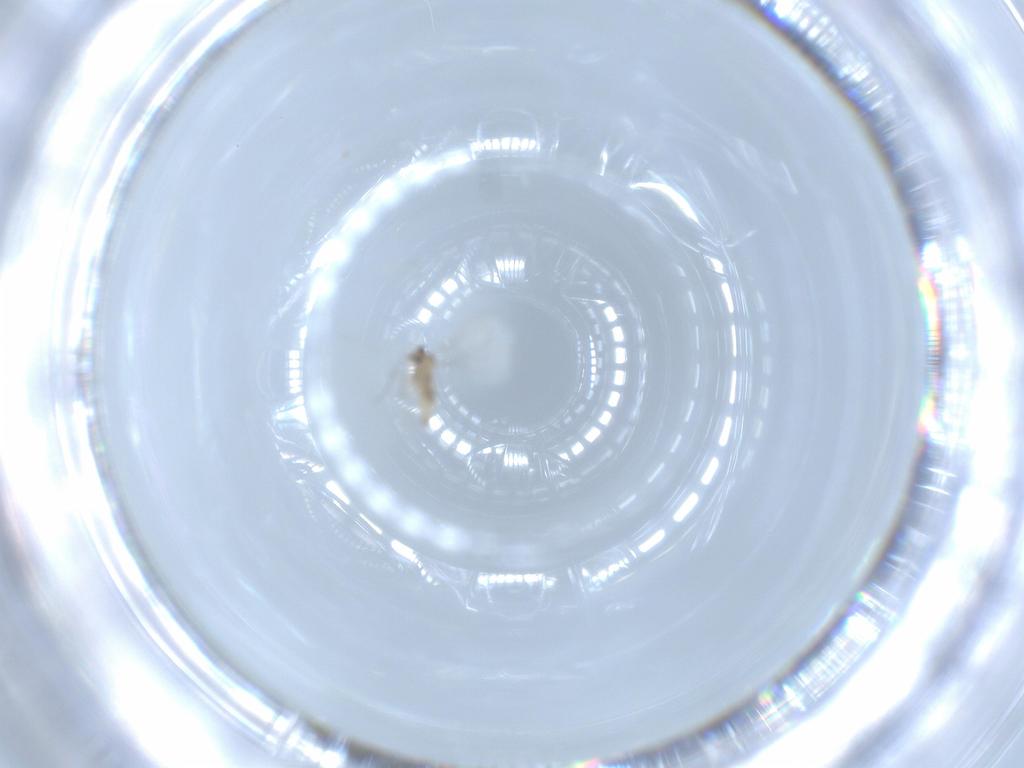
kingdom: Animalia
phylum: Arthropoda
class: Insecta
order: Diptera
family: Cecidomyiidae
